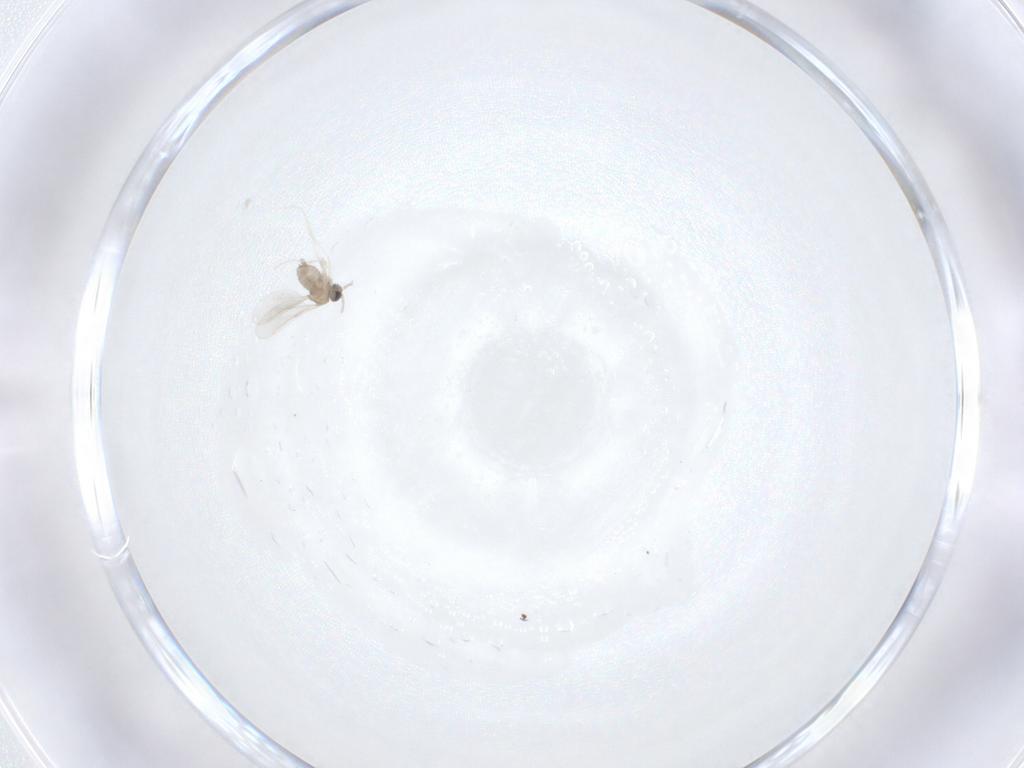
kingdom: Animalia
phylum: Arthropoda
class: Insecta
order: Diptera
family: Cecidomyiidae
